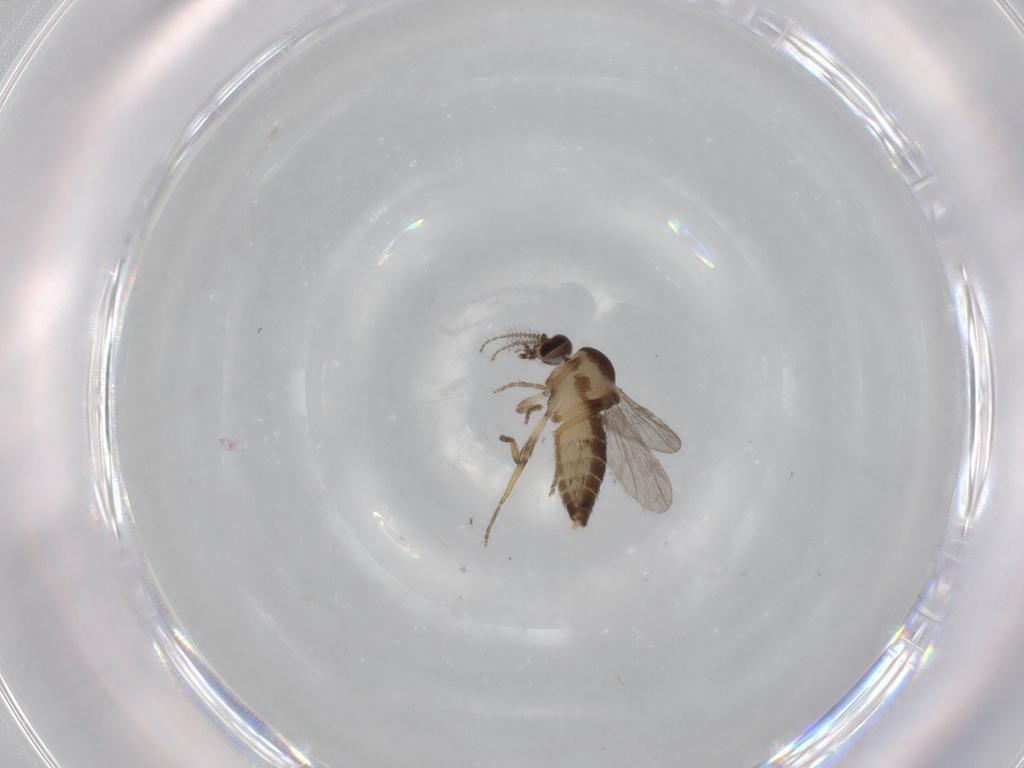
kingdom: Animalia
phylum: Arthropoda
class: Insecta
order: Diptera
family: Ceratopogonidae
